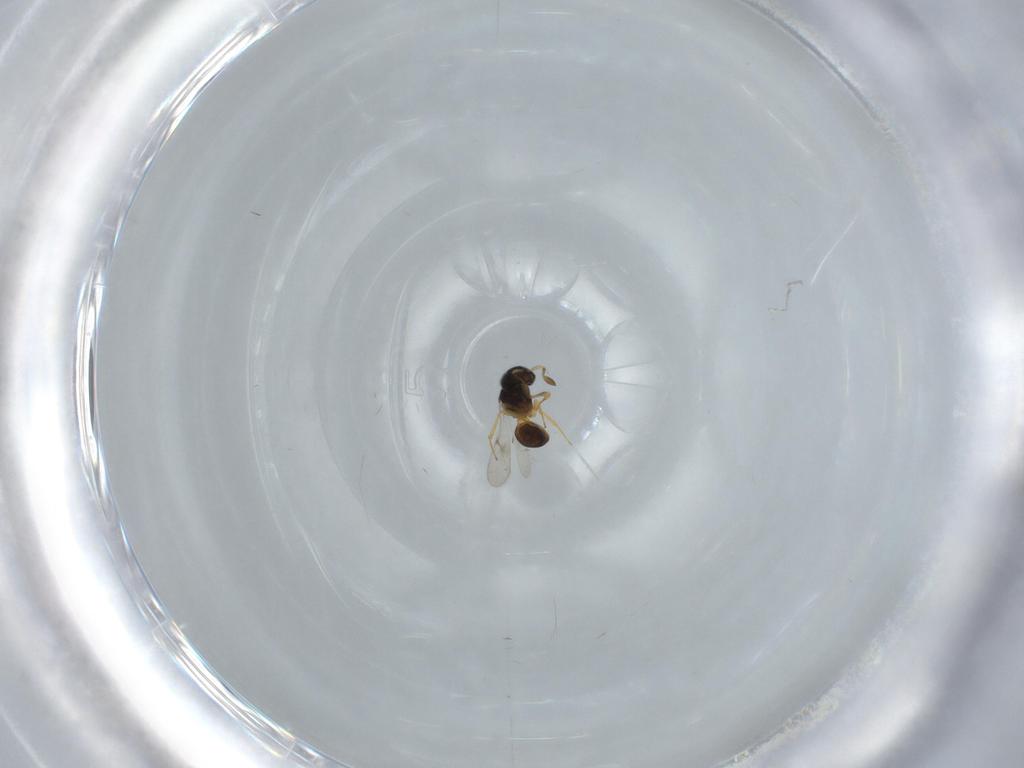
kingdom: Animalia
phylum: Arthropoda
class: Insecta
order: Hymenoptera
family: Scelionidae
